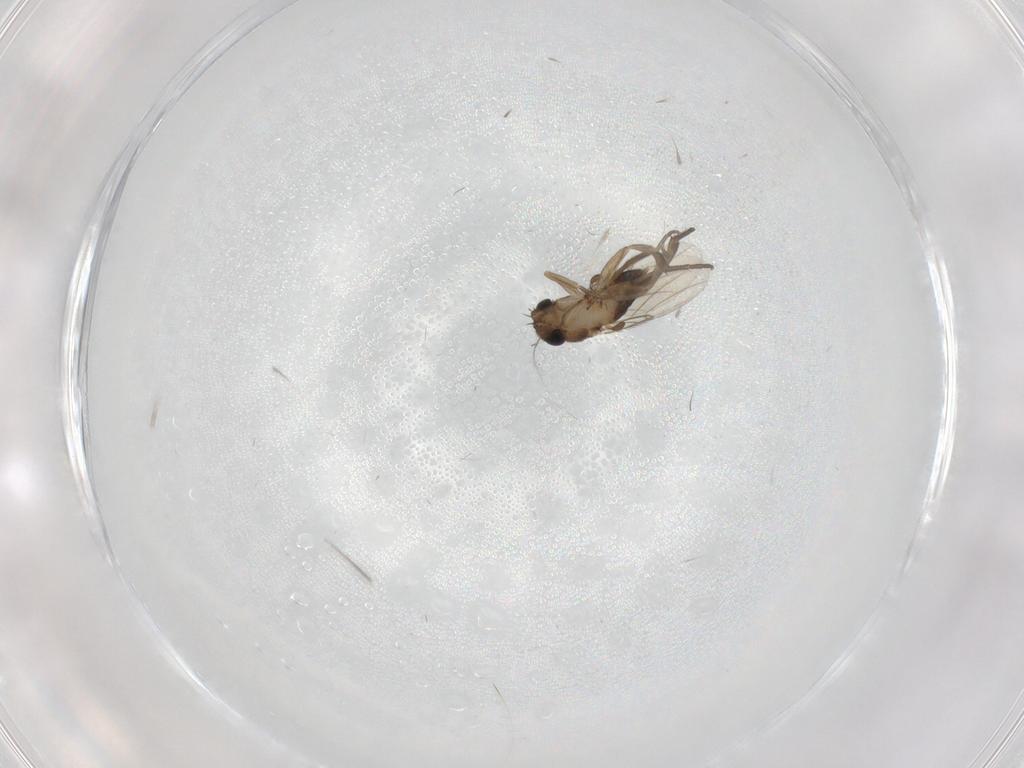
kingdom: Animalia
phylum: Arthropoda
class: Insecta
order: Diptera
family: Phoridae
